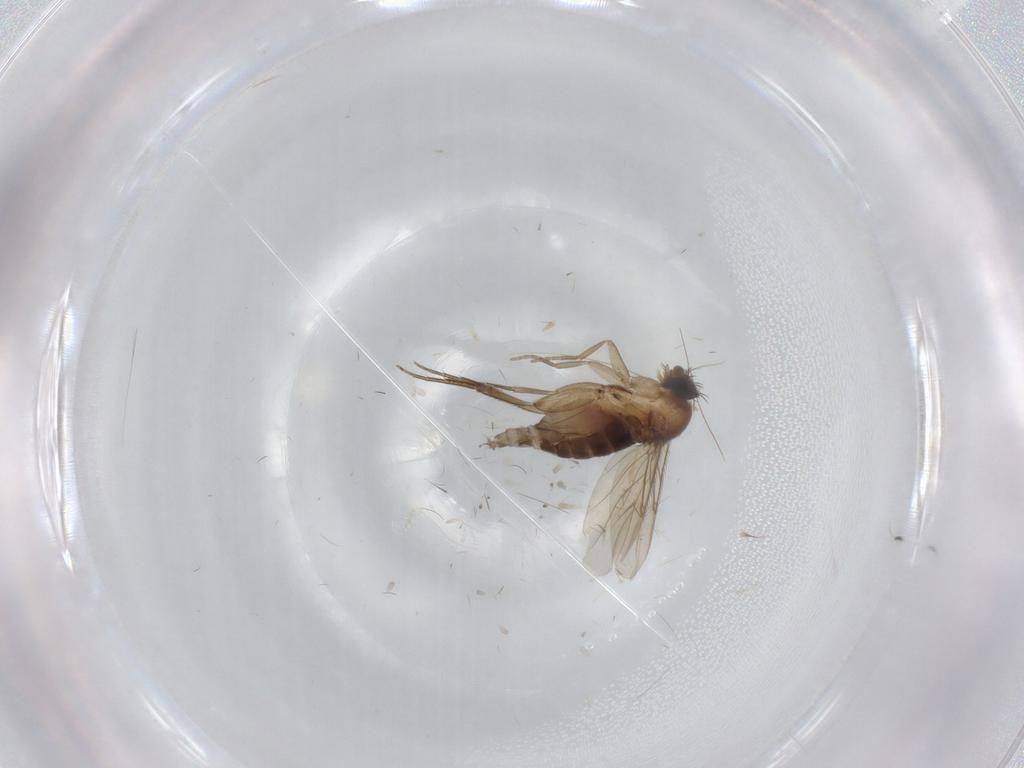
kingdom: Animalia
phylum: Arthropoda
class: Insecta
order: Diptera
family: Phoridae
